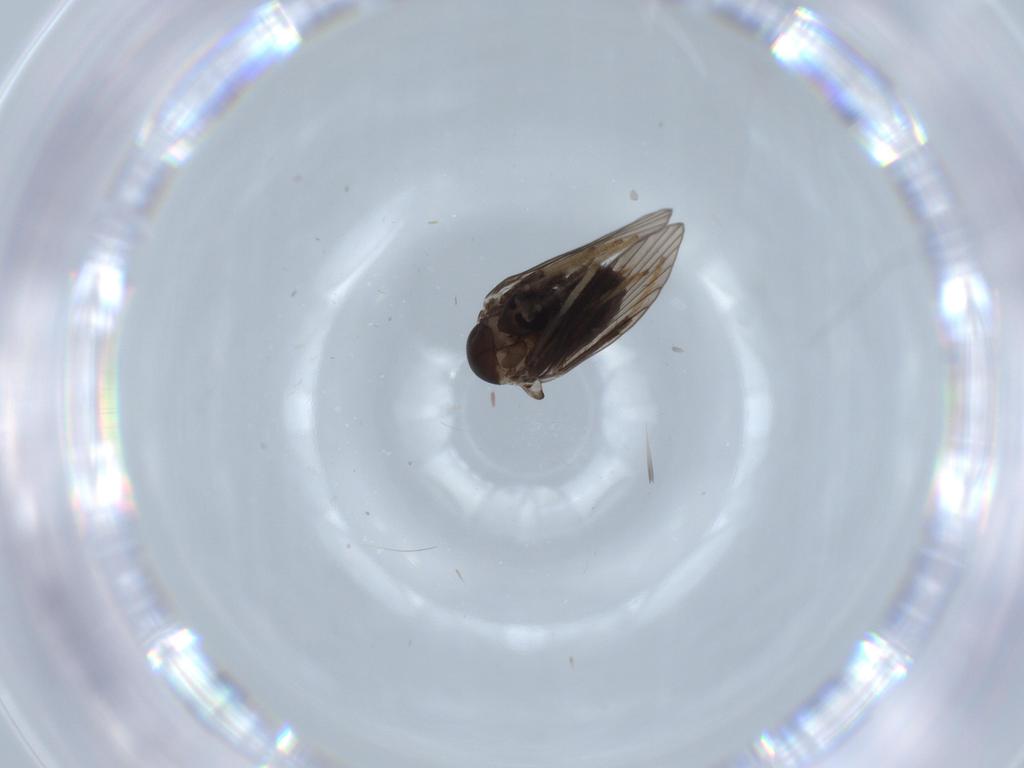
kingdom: Animalia
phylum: Arthropoda
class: Insecta
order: Diptera
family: Psychodidae
